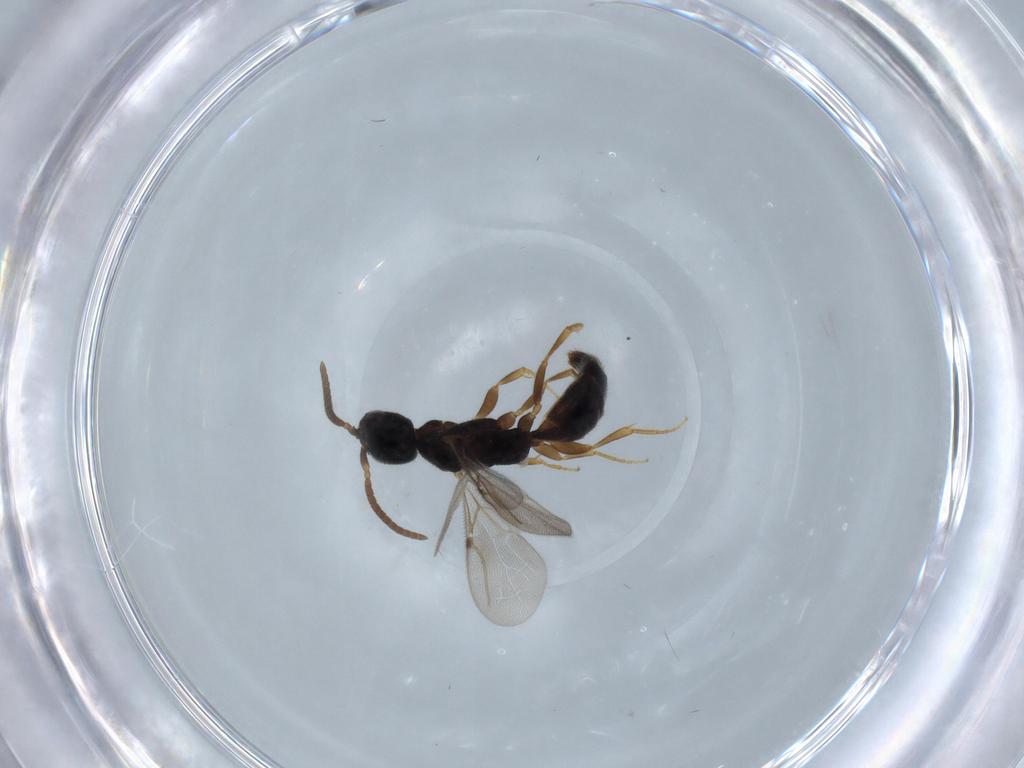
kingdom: Animalia
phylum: Arthropoda
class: Insecta
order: Hymenoptera
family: Bethylidae
